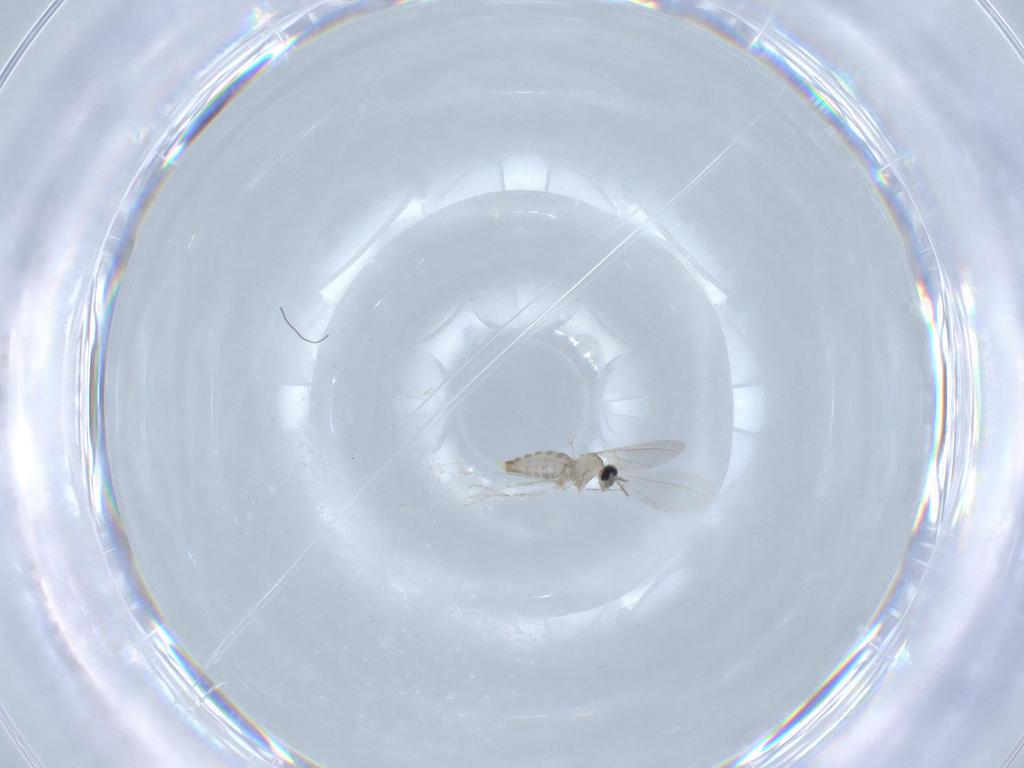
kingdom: Animalia
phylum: Arthropoda
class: Insecta
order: Diptera
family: Cecidomyiidae
